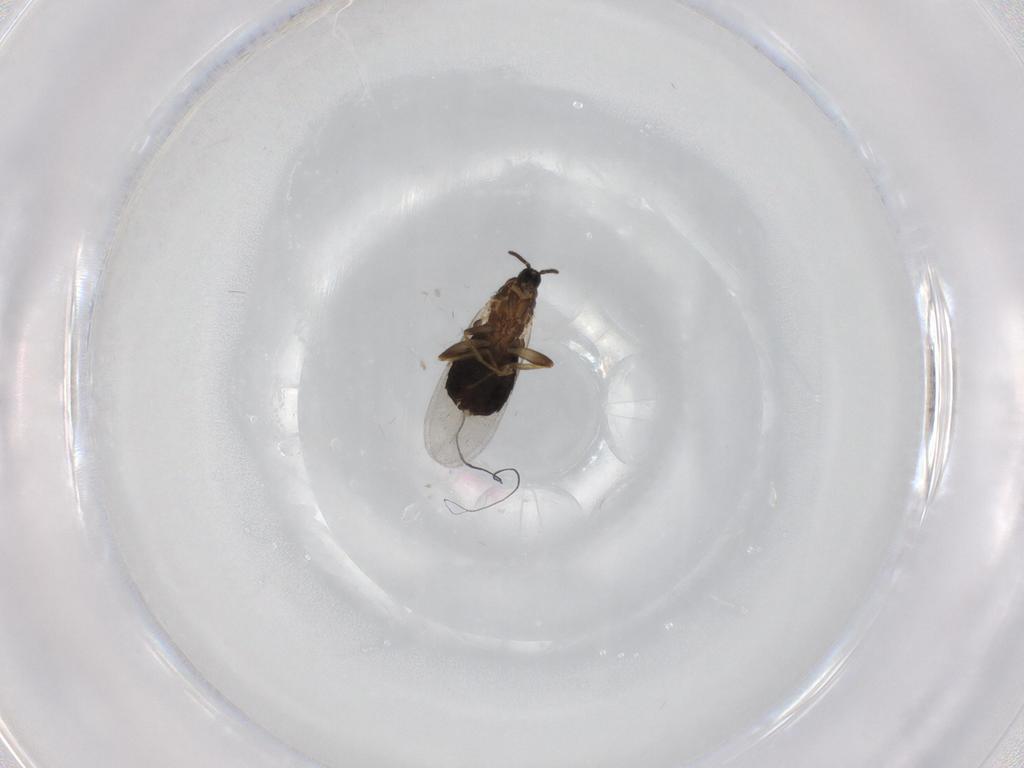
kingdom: Animalia
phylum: Arthropoda
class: Insecta
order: Diptera
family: Scatopsidae
